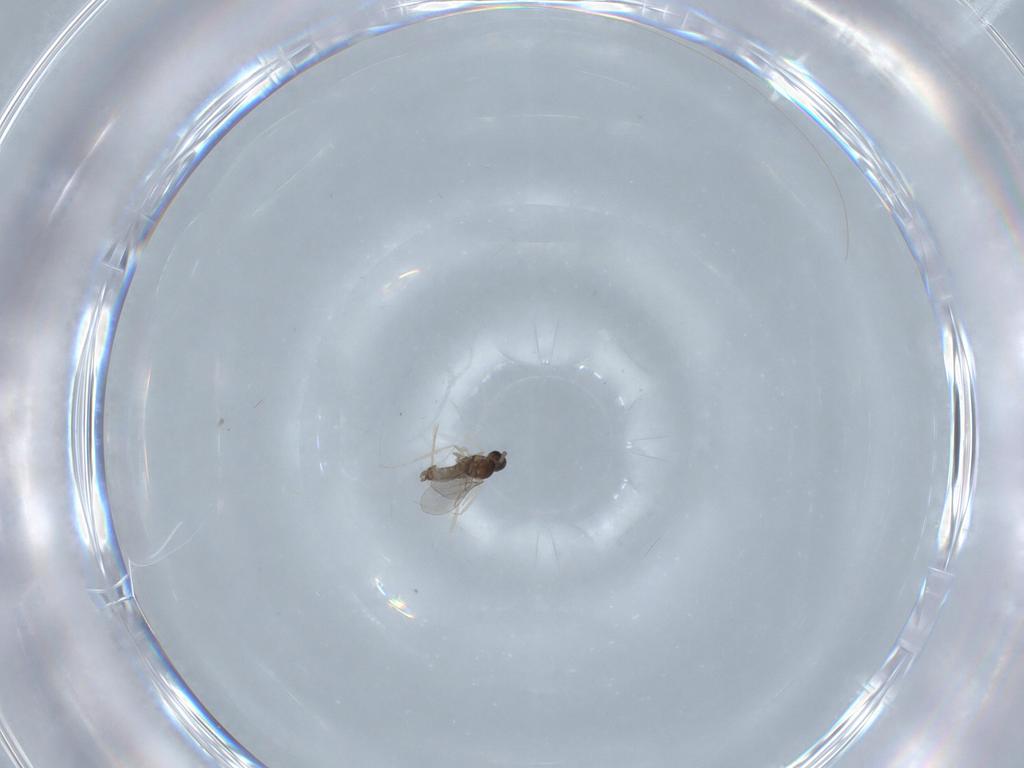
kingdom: Animalia
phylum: Arthropoda
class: Insecta
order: Diptera
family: Cecidomyiidae
